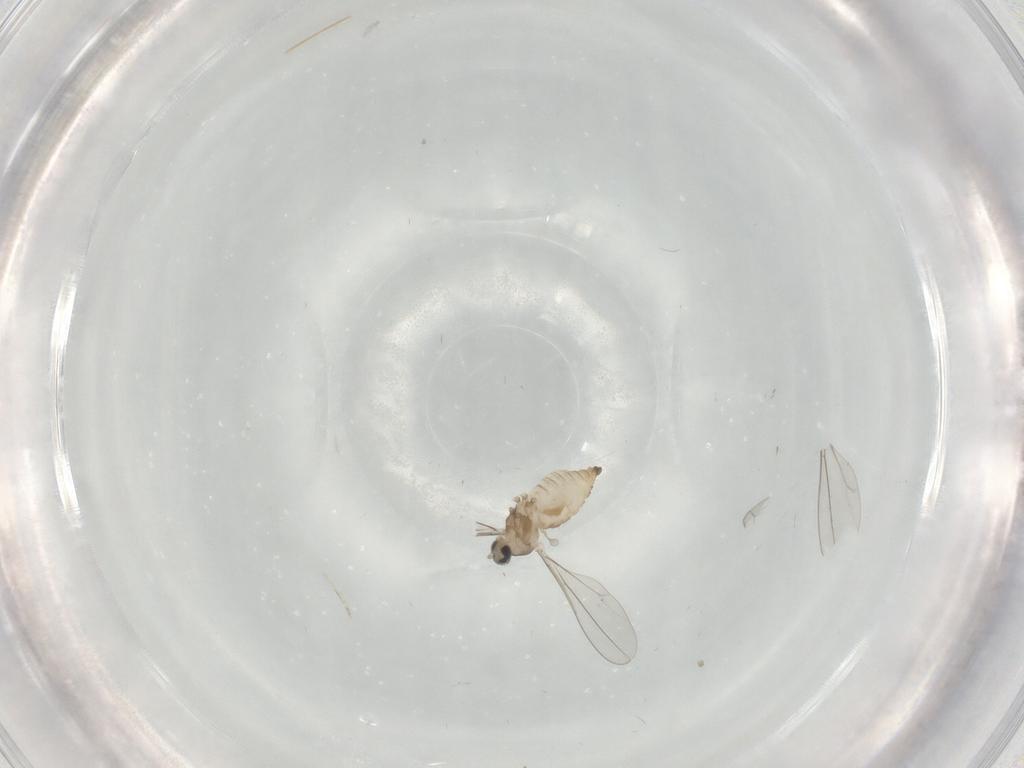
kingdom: Animalia
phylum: Arthropoda
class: Insecta
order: Diptera
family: Cecidomyiidae
